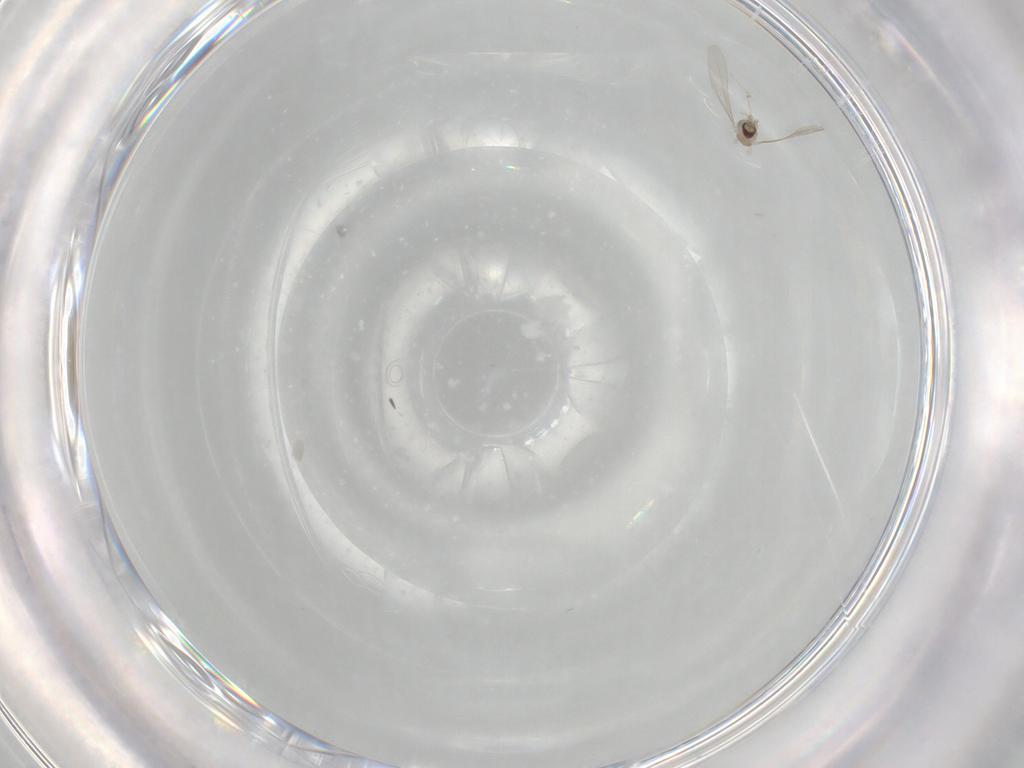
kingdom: Animalia
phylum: Arthropoda
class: Insecta
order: Diptera
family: Cecidomyiidae
